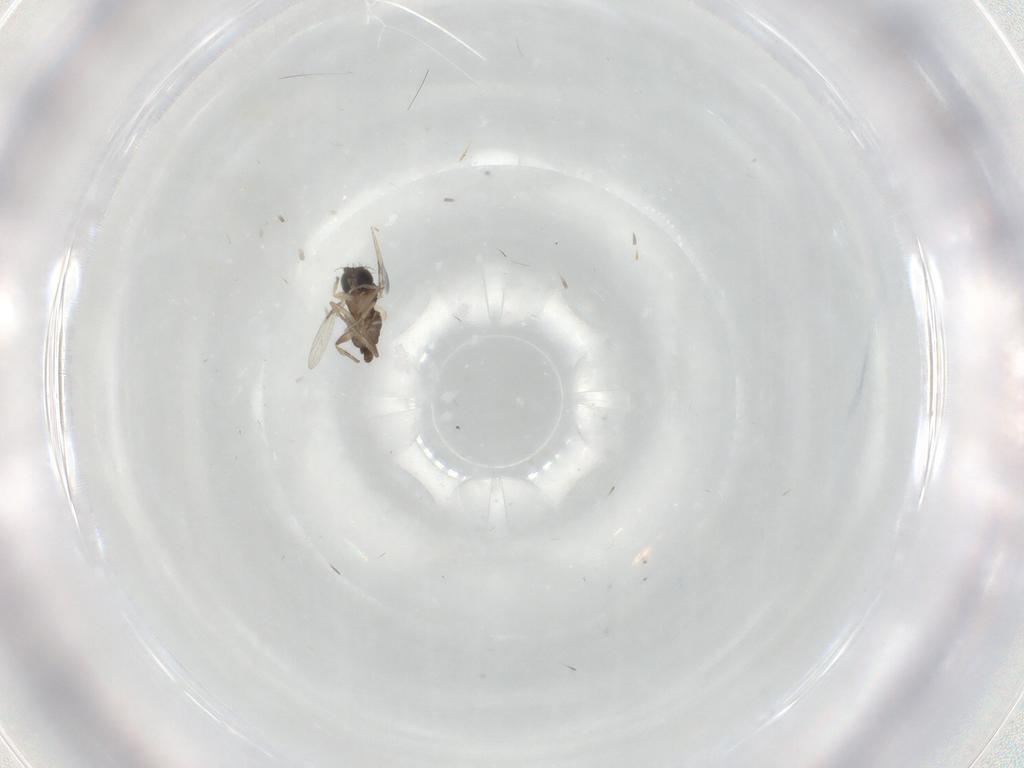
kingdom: Animalia
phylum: Arthropoda
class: Insecta
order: Diptera
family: Phoridae
